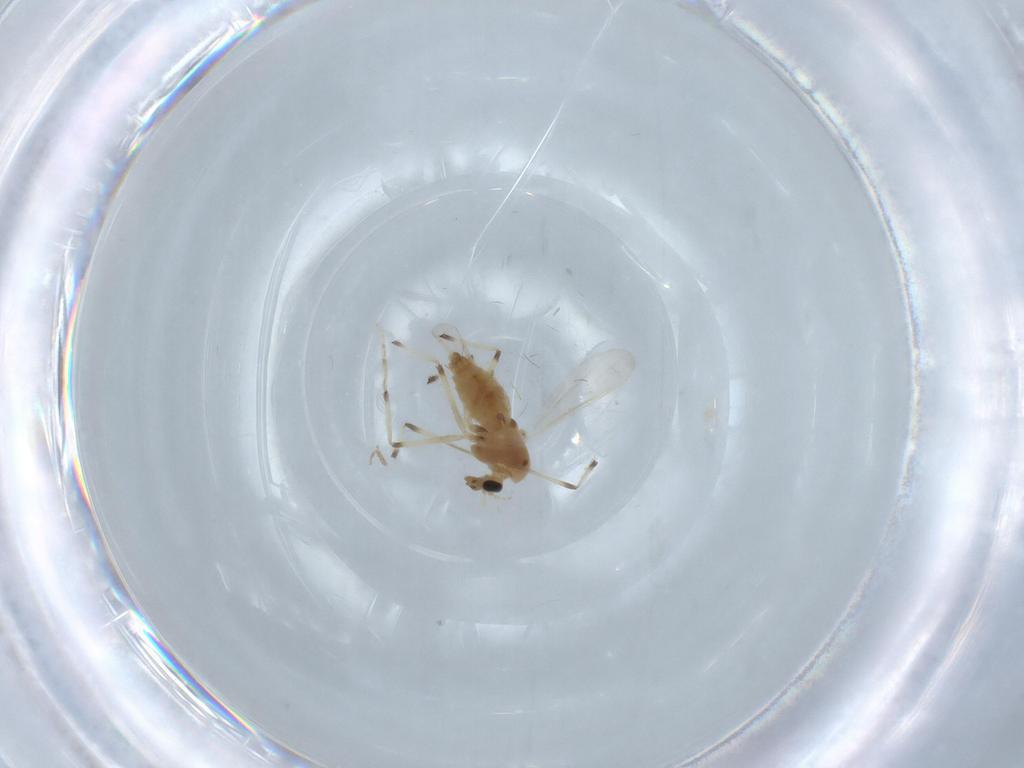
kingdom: Animalia
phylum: Arthropoda
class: Insecta
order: Diptera
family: Chironomidae
